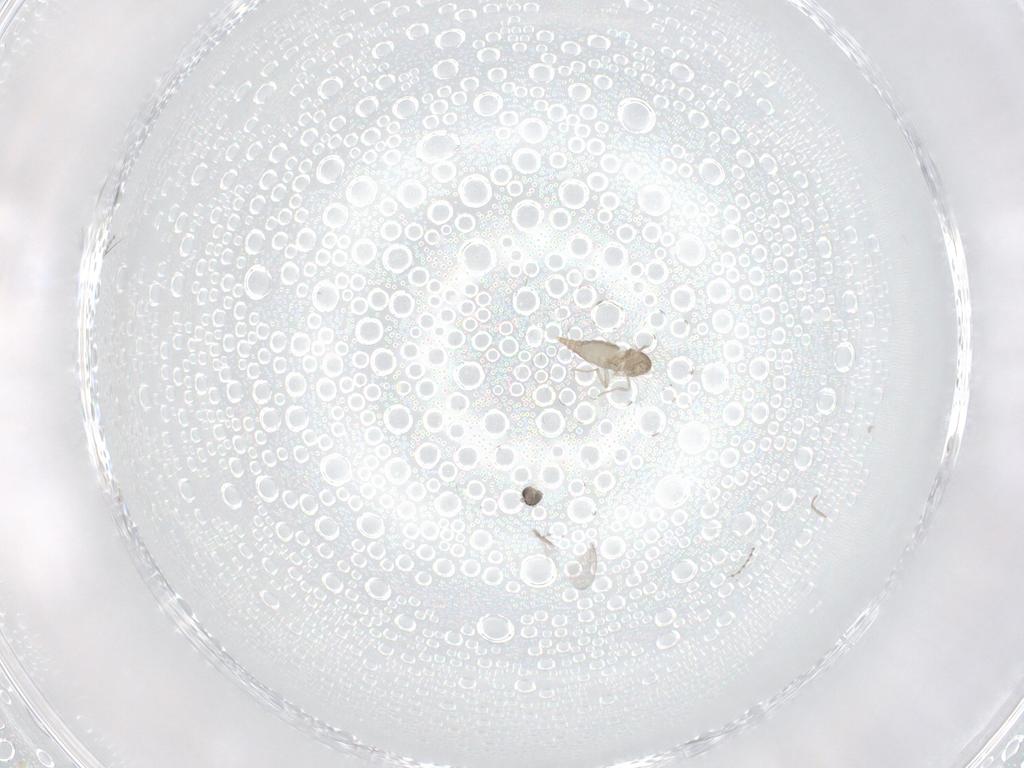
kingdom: Animalia
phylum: Arthropoda
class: Insecta
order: Diptera
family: Cecidomyiidae
